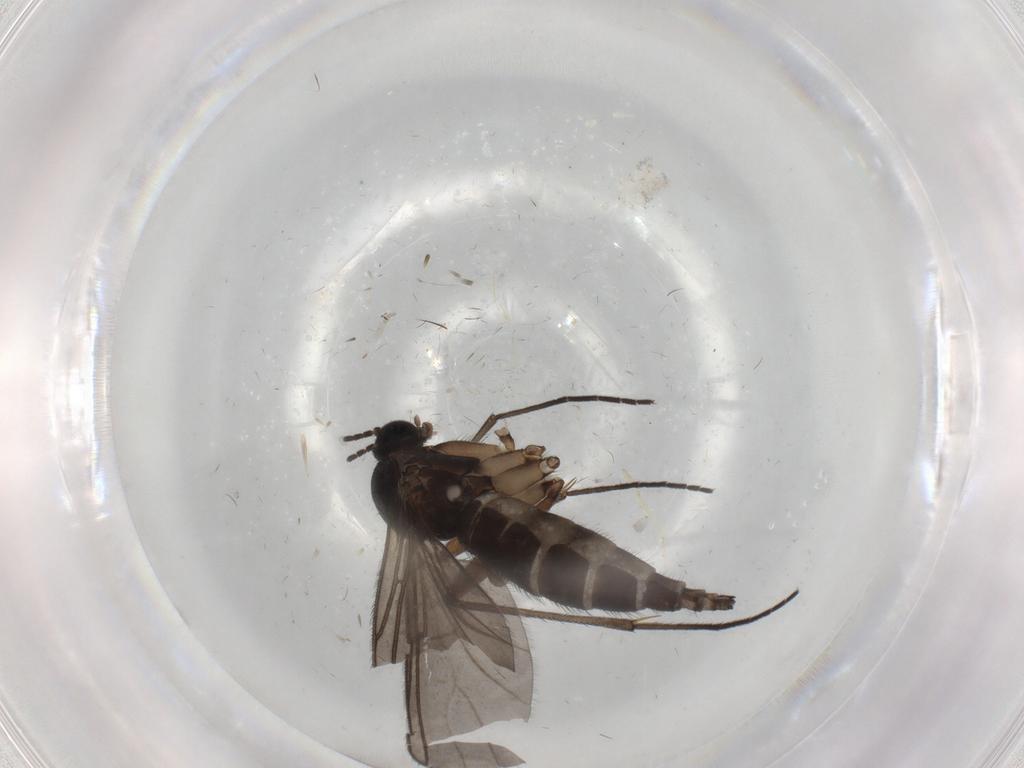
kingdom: Animalia
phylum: Arthropoda
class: Insecta
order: Diptera
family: Sciaridae
